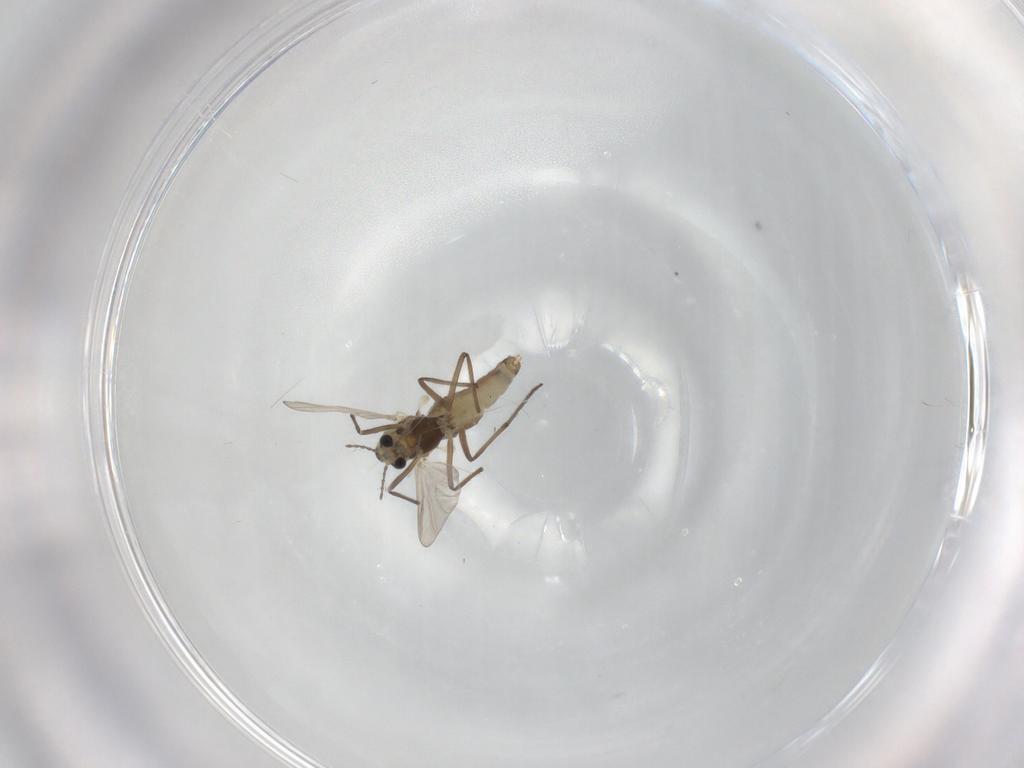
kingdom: Animalia
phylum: Arthropoda
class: Insecta
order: Diptera
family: Chironomidae
